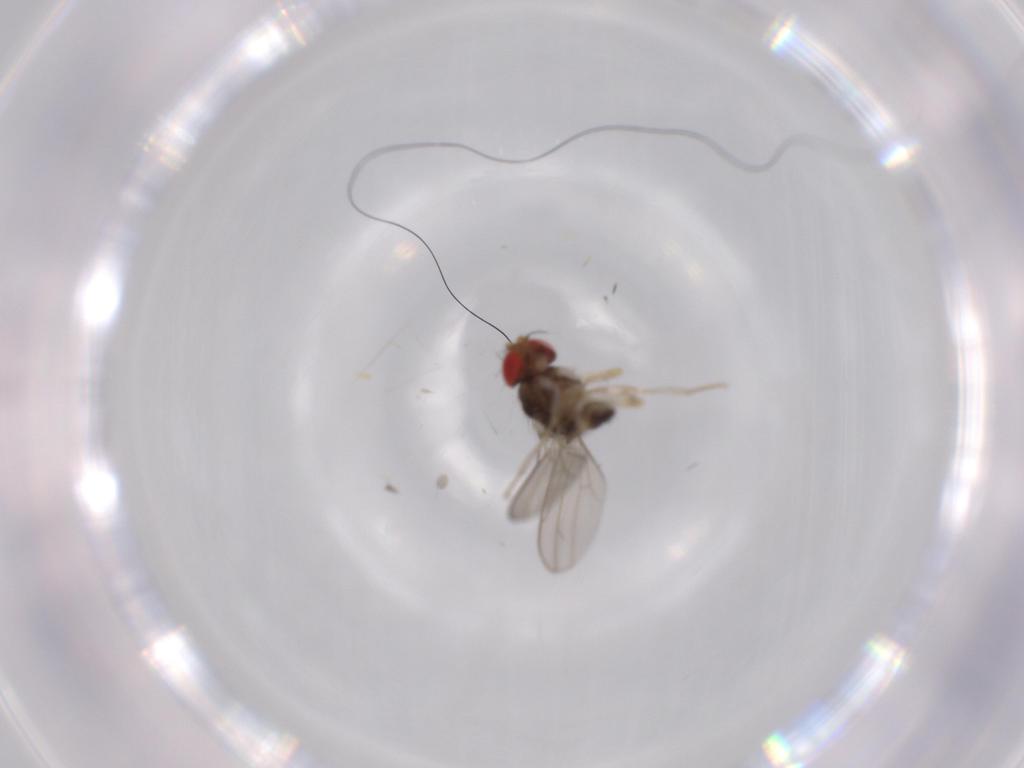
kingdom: Animalia
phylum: Arthropoda
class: Insecta
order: Diptera
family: Drosophilidae
